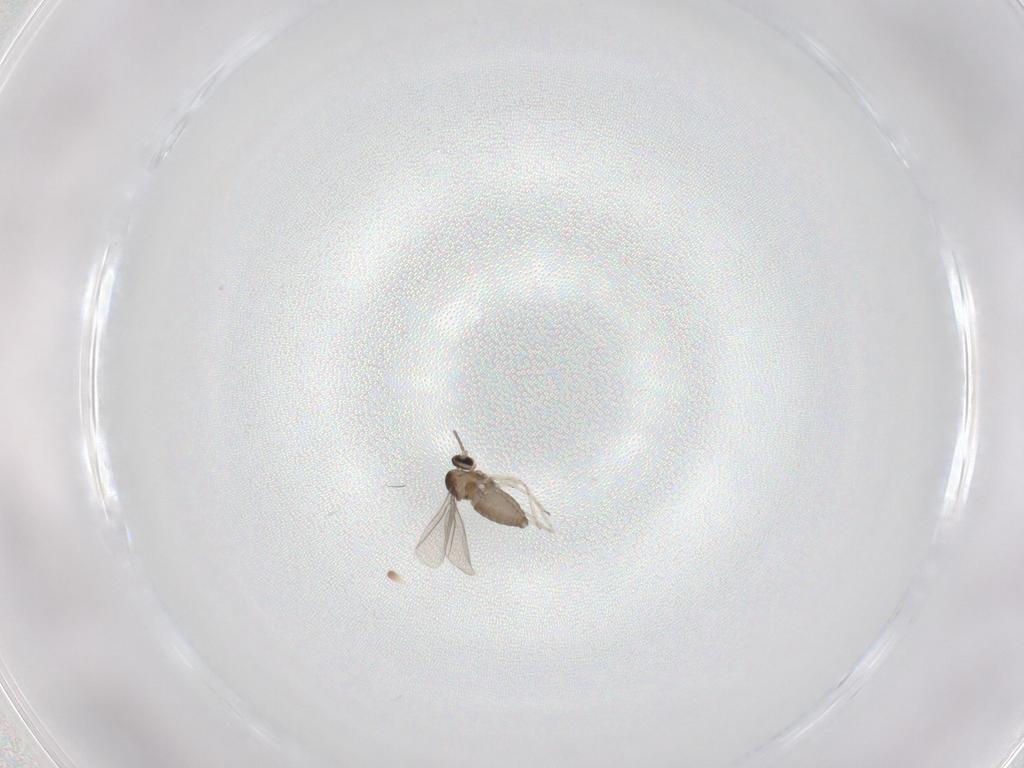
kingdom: Animalia
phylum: Arthropoda
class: Insecta
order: Diptera
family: Cecidomyiidae
